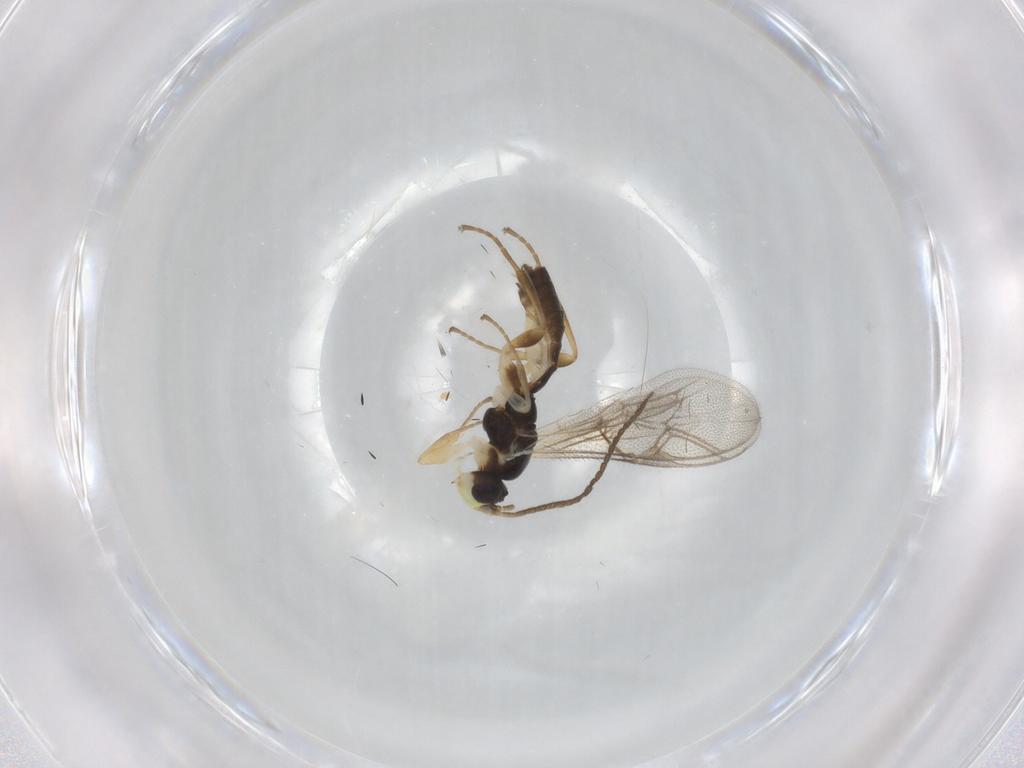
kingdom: Animalia
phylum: Arthropoda
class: Insecta
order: Hymenoptera
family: Ichneumonidae
